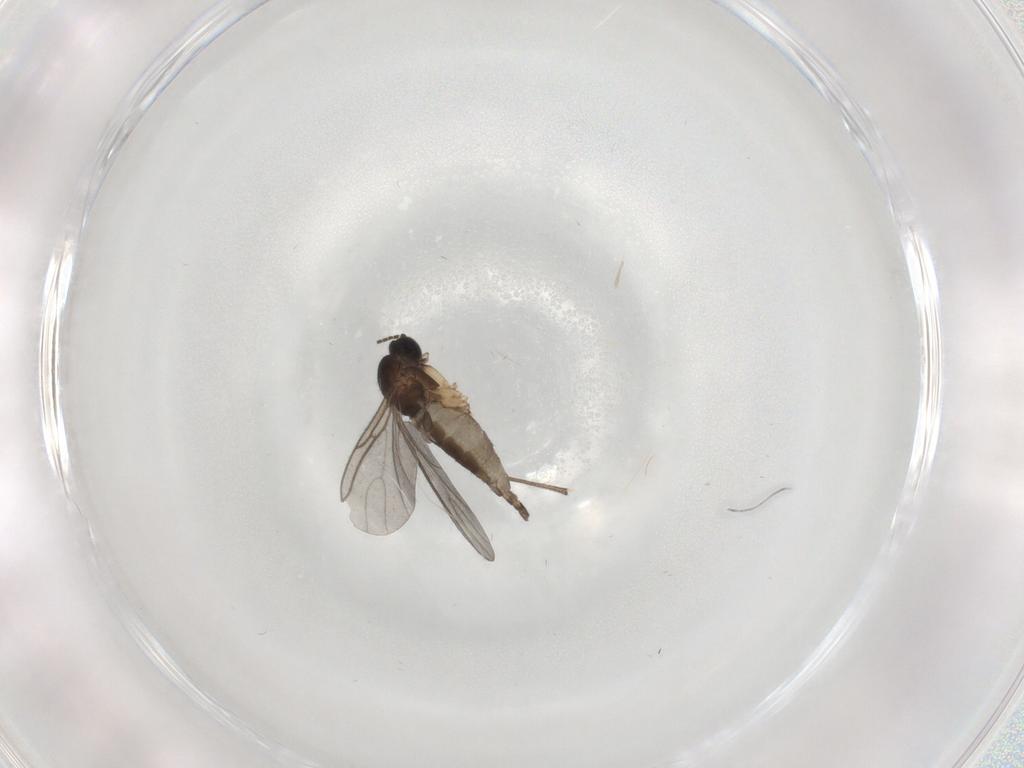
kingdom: Animalia
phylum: Arthropoda
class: Insecta
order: Diptera
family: Sciaridae
